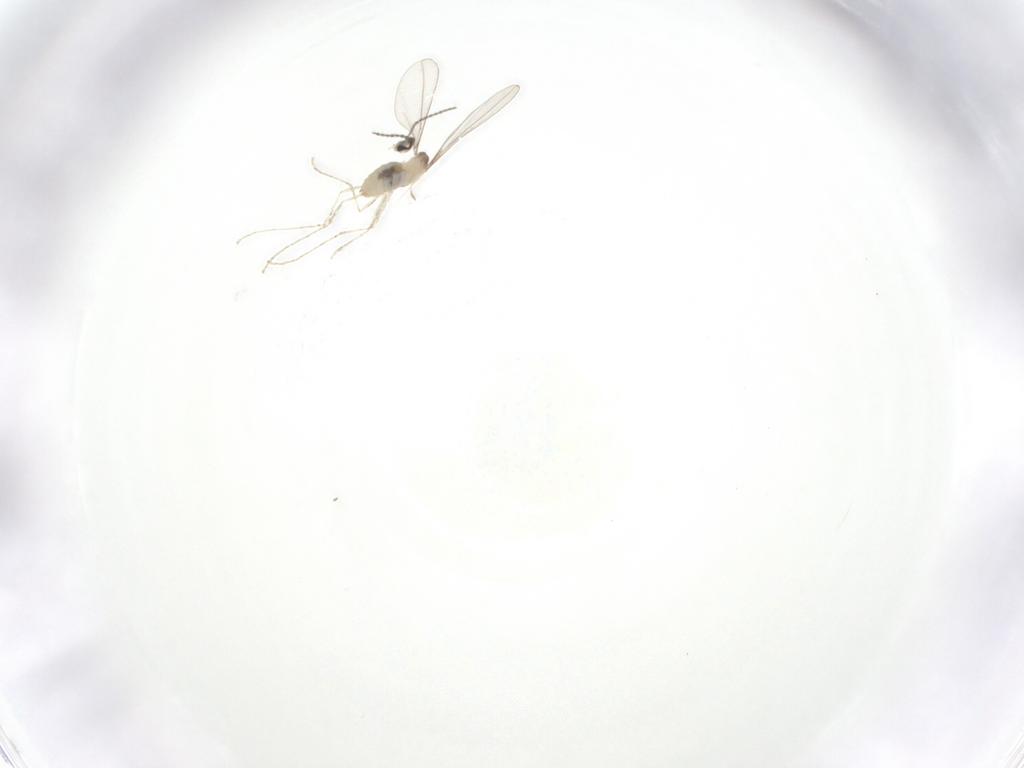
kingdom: Animalia
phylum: Arthropoda
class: Insecta
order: Diptera
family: Cecidomyiidae
